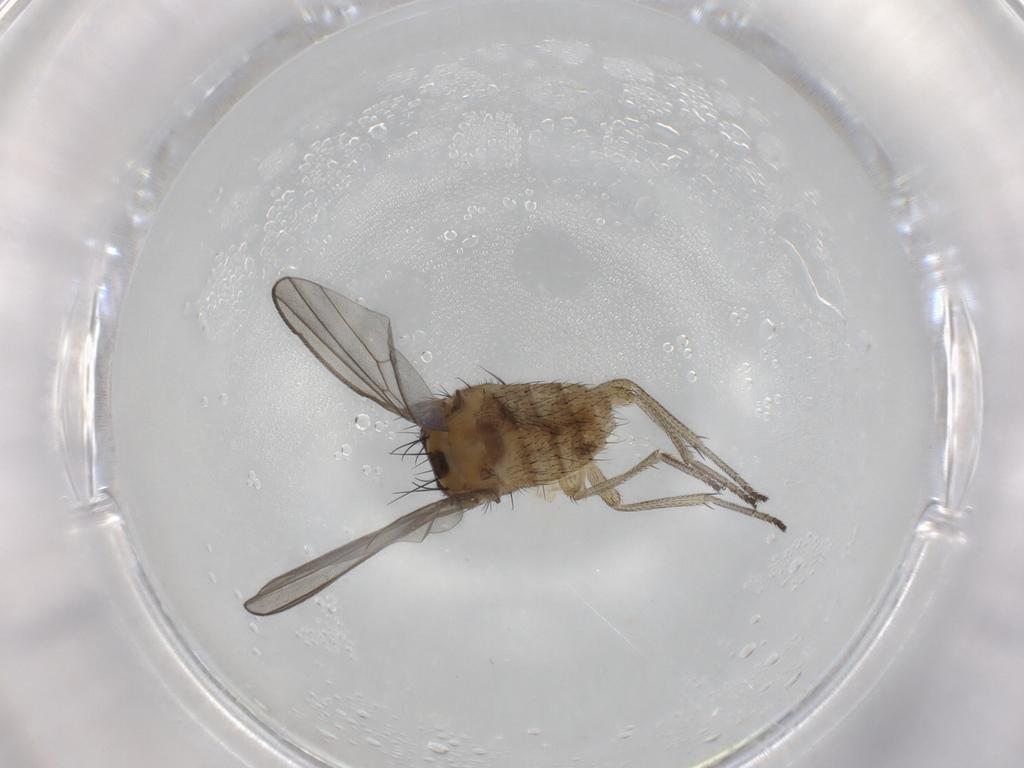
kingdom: Animalia
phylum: Arthropoda
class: Insecta
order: Diptera
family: Lauxaniidae
